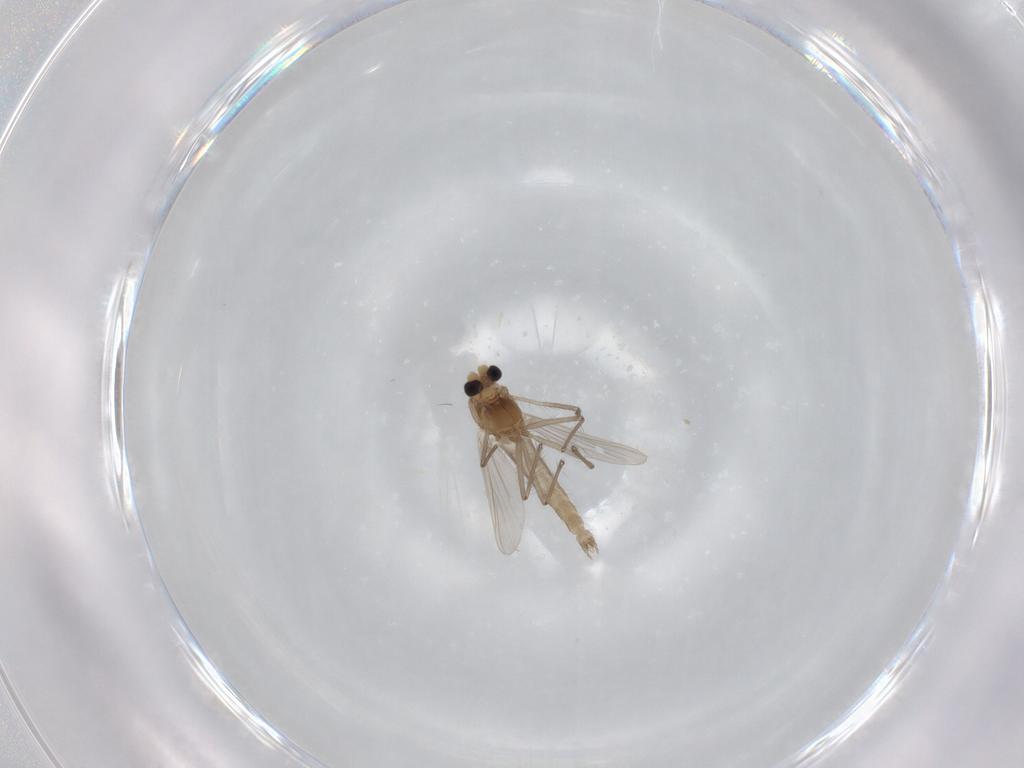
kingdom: Animalia
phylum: Arthropoda
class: Insecta
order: Diptera
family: Chironomidae
